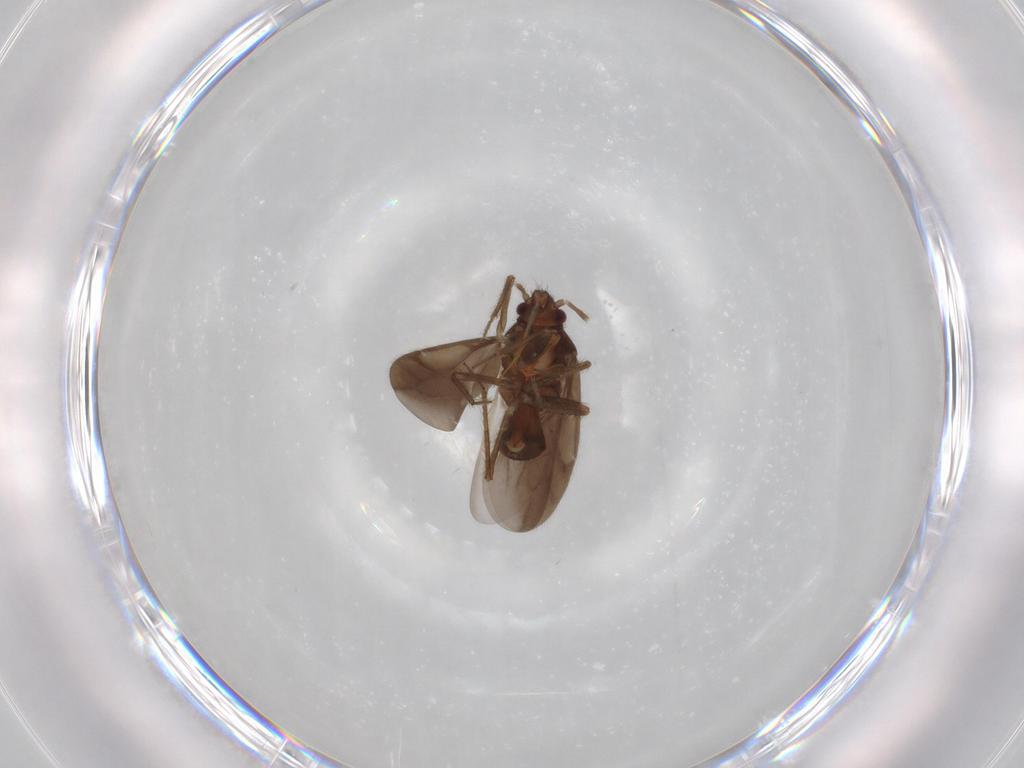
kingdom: Animalia
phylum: Arthropoda
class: Insecta
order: Hemiptera
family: Ceratocombidae
